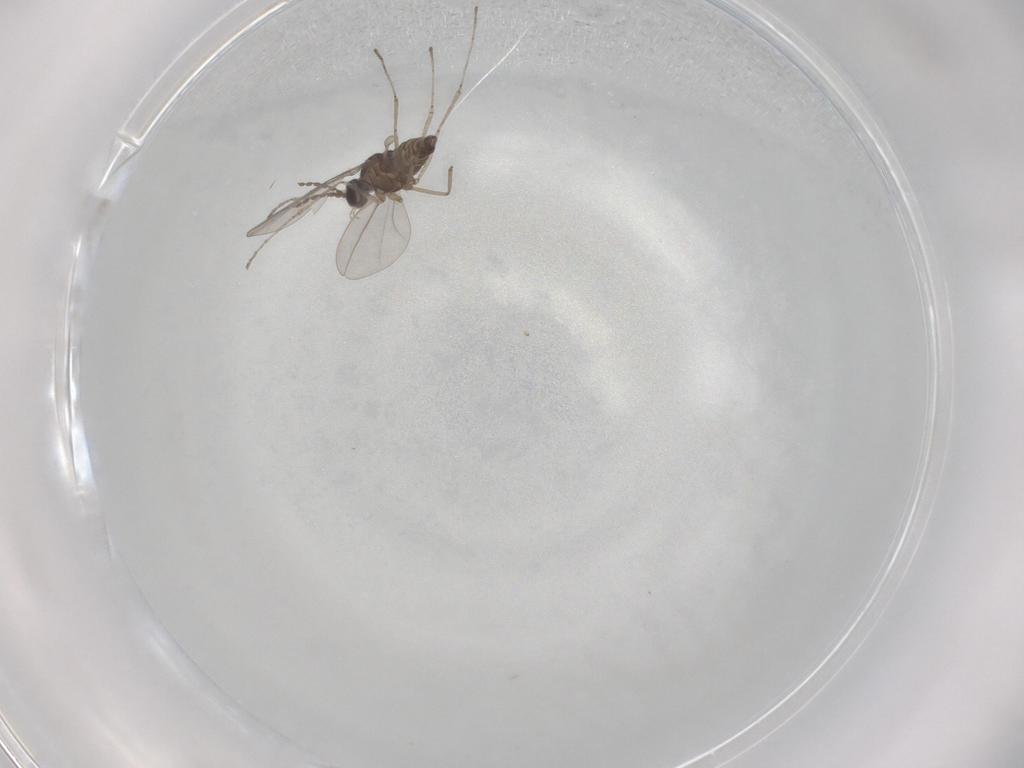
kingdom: Animalia
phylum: Arthropoda
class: Insecta
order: Diptera
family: Cecidomyiidae
